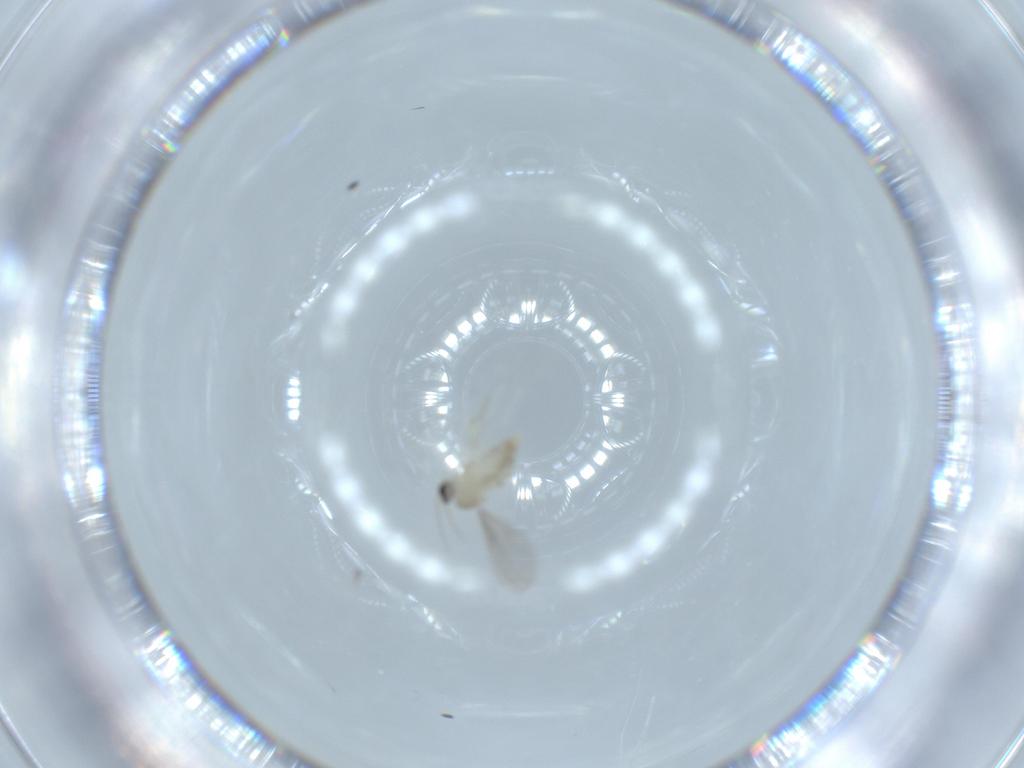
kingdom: Animalia
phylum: Arthropoda
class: Insecta
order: Diptera
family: Cecidomyiidae
